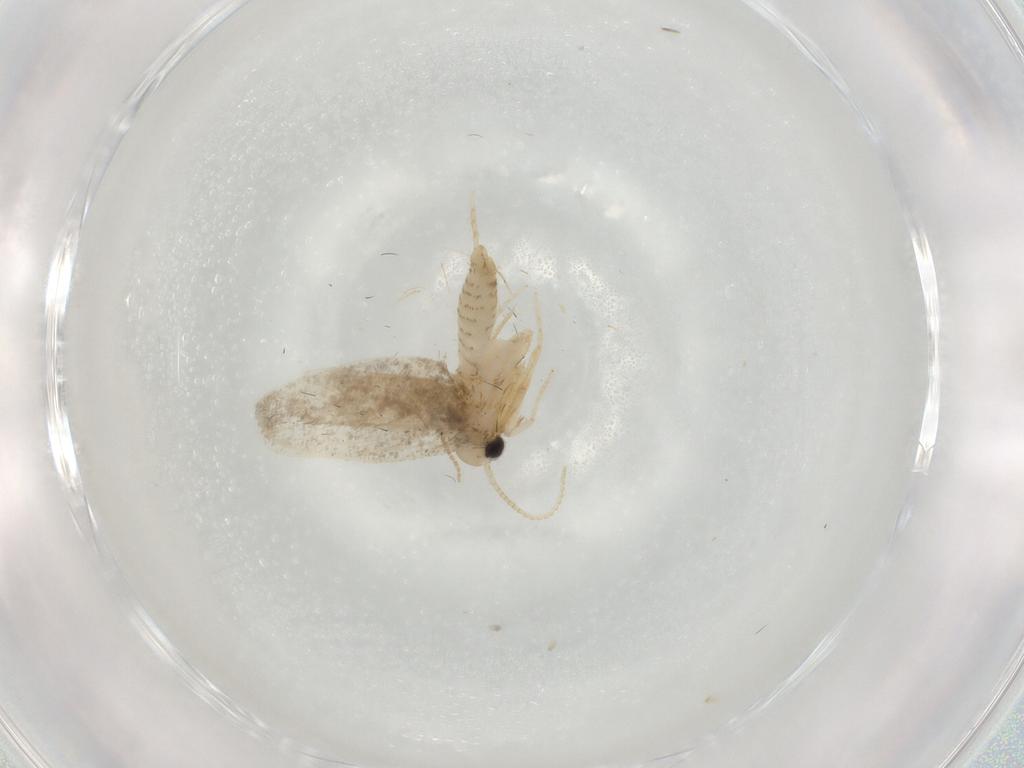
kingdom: Animalia
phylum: Arthropoda
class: Insecta
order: Lepidoptera
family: Psychidae
